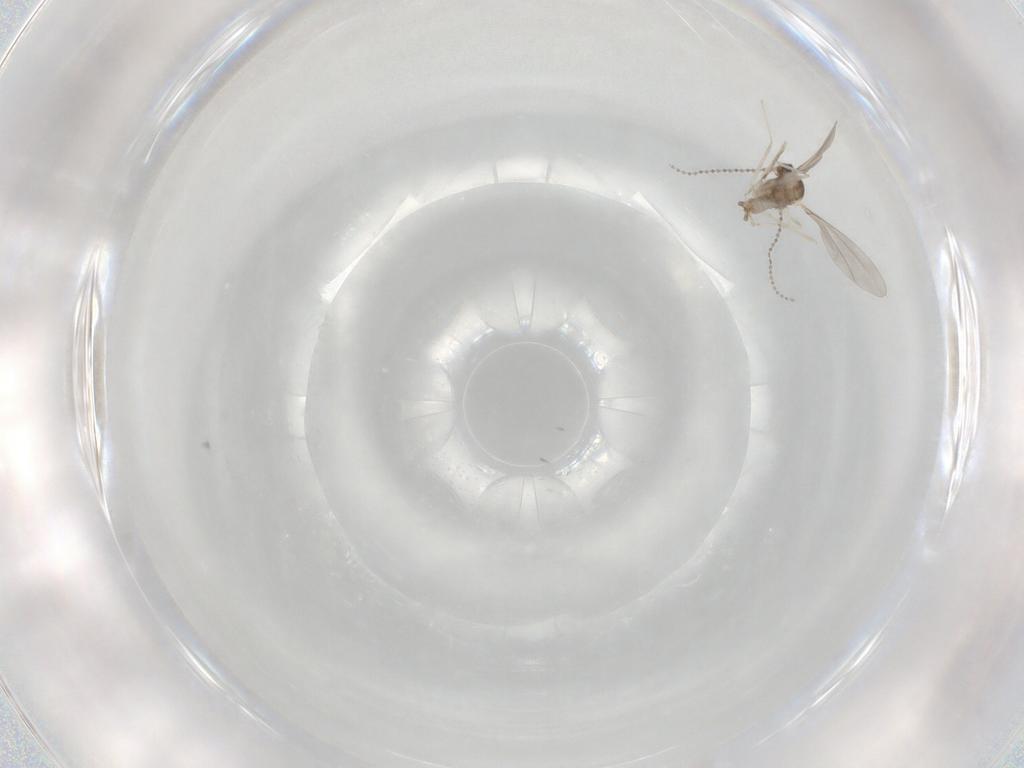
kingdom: Animalia
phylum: Arthropoda
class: Insecta
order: Diptera
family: Cecidomyiidae
